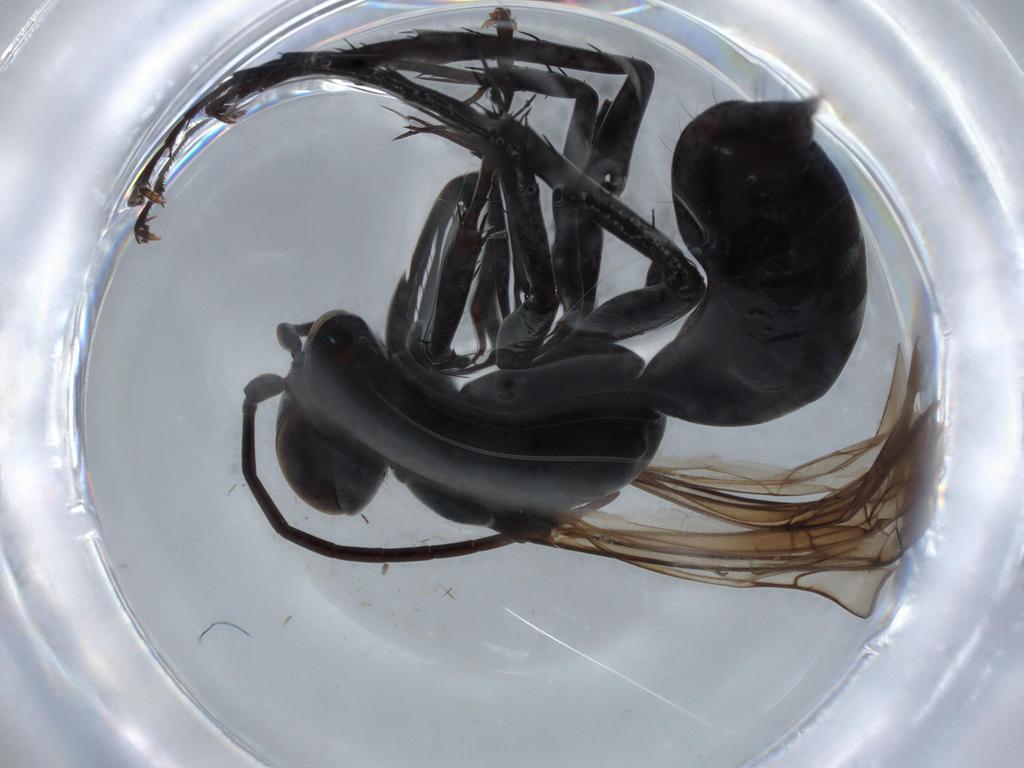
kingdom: Animalia
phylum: Arthropoda
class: Insecta
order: Hymenoptera
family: Pompilidae
